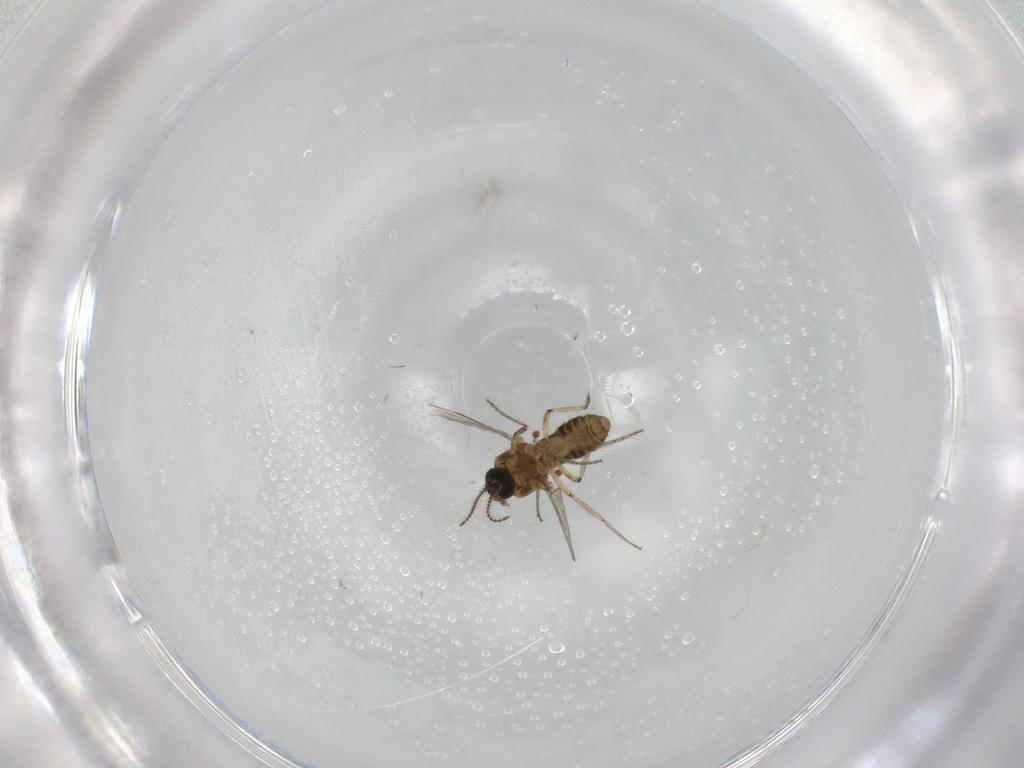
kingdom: Animalia
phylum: Arthropoda
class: Insecta
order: Diptera
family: Ceratopogonidae
